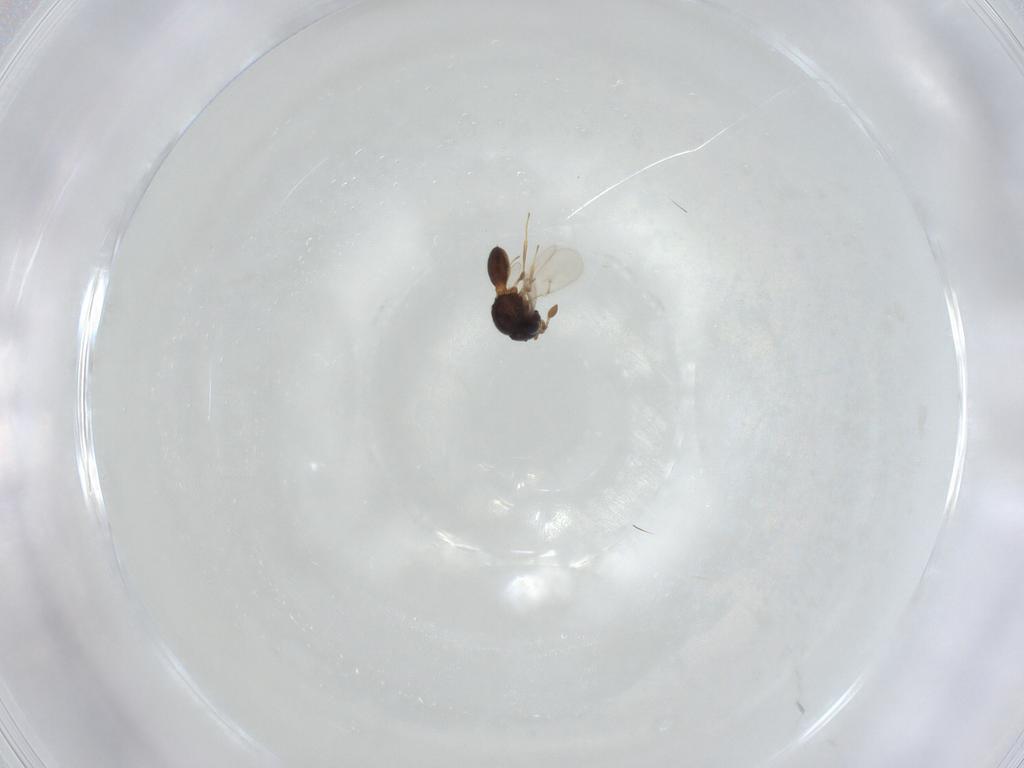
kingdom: Animalia
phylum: Arthropoda
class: Insecta
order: Hymenoptera
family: Scelionidae
